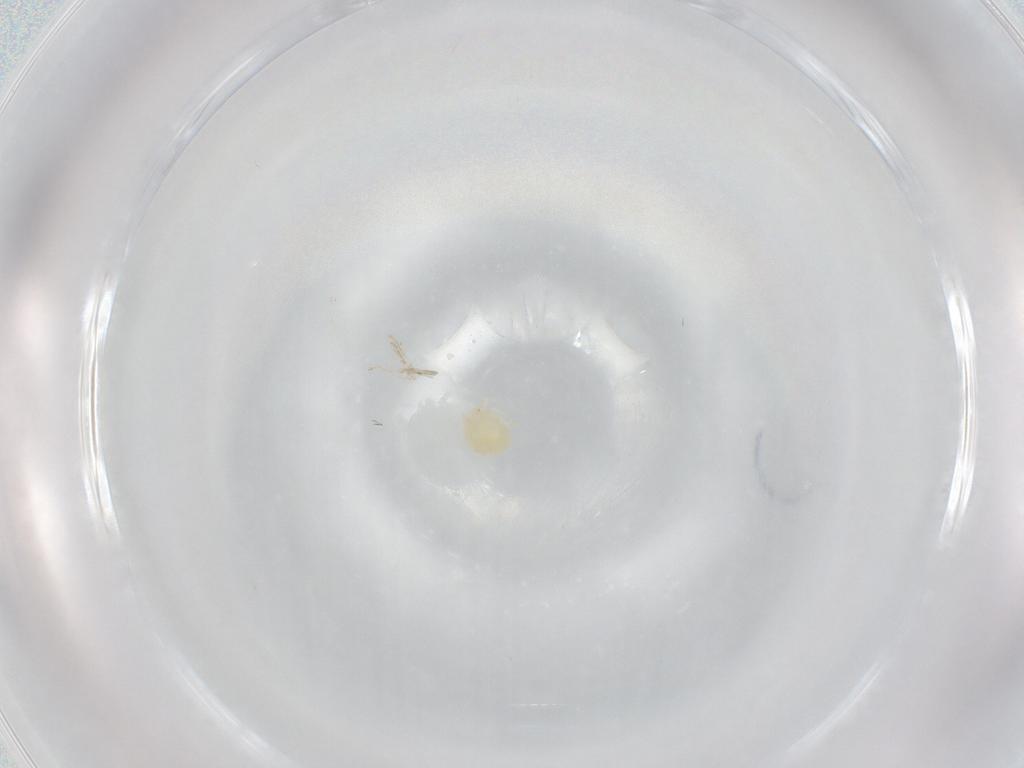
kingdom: Animalia
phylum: Arthropoda
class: Arachnida
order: Trombidiformes
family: Hydryphantidae
